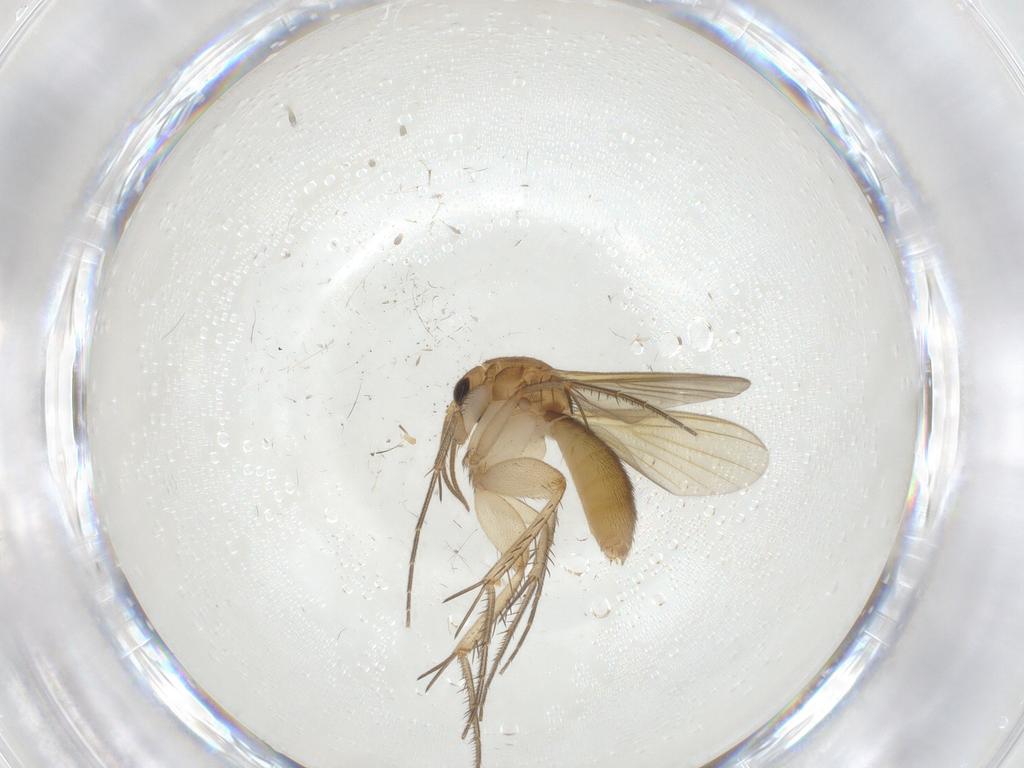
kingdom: Animalia
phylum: Arthropoda
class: Insecta
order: Diptera
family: Mycetophilidae
